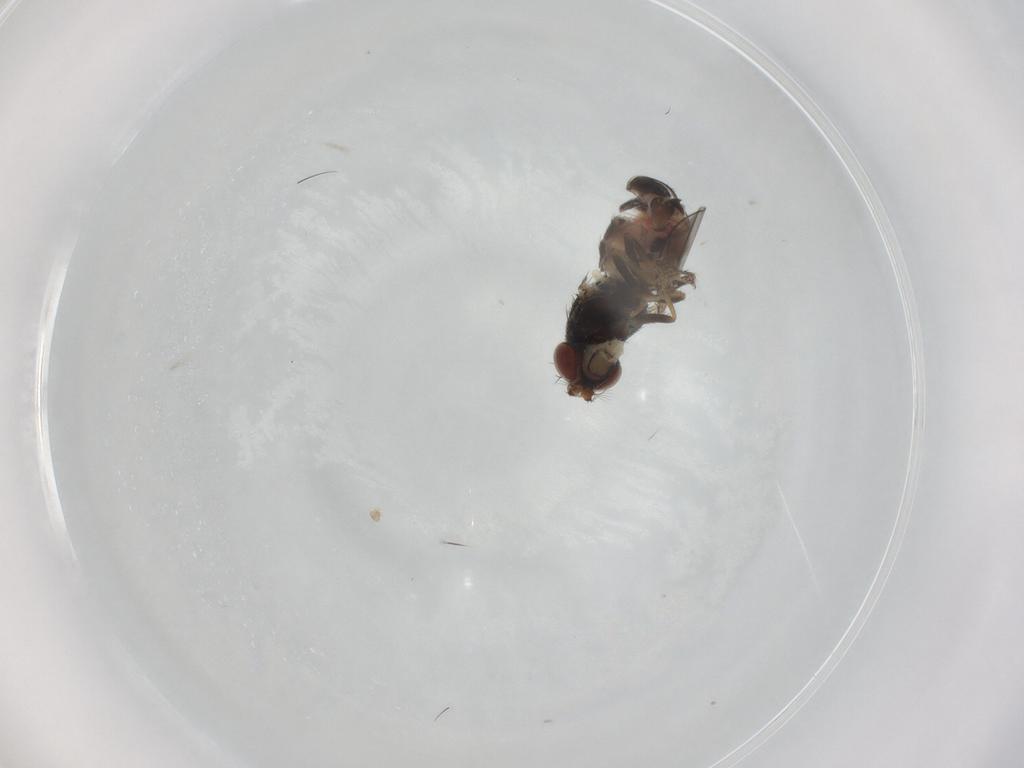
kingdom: Animalia
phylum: Arthropoda
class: Insecta
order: Diptera
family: Ephydridae
